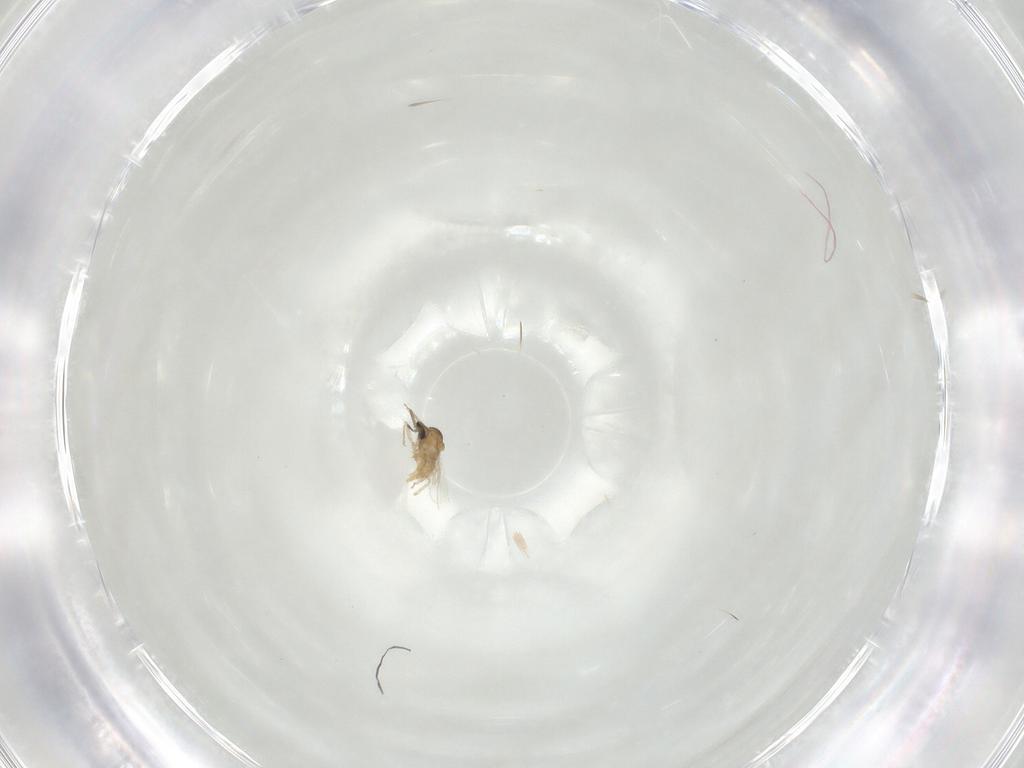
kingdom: Animalia
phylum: Arthropoda
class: Insecta
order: Diptera
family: Cecidomyiidae
